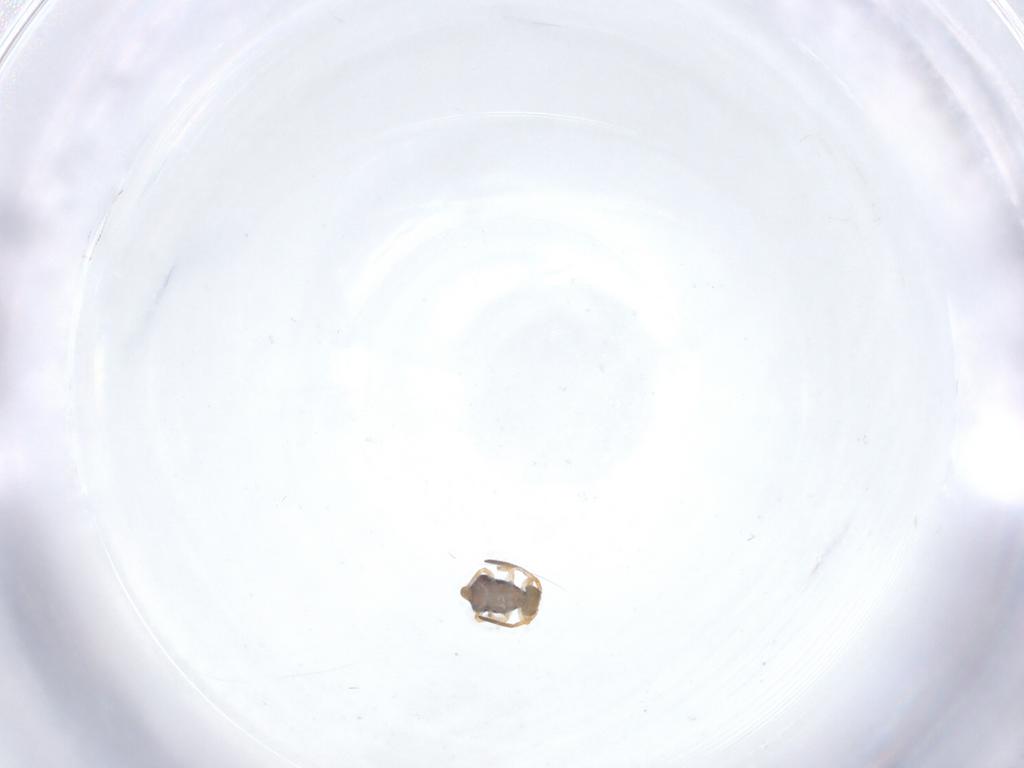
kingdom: Animalia
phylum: Arthropoda
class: Collembola
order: Symphypleona
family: Katiannidae
